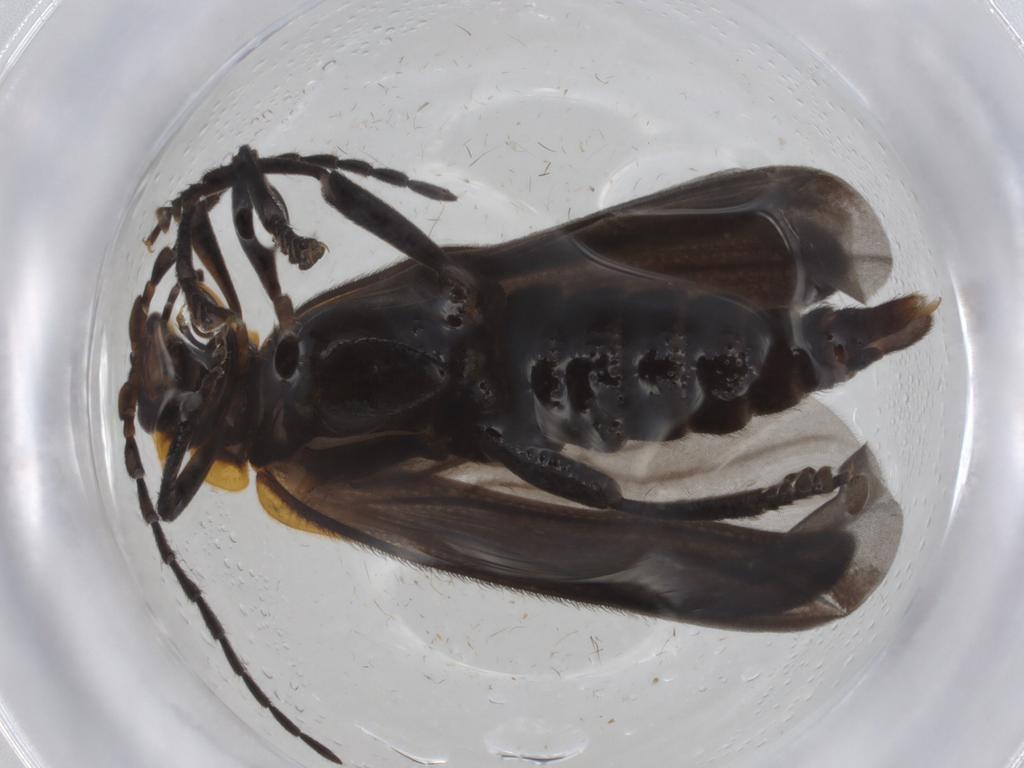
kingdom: Animalia
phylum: Arthropoda
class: Insecta
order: Coleoptera
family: Lycidae
